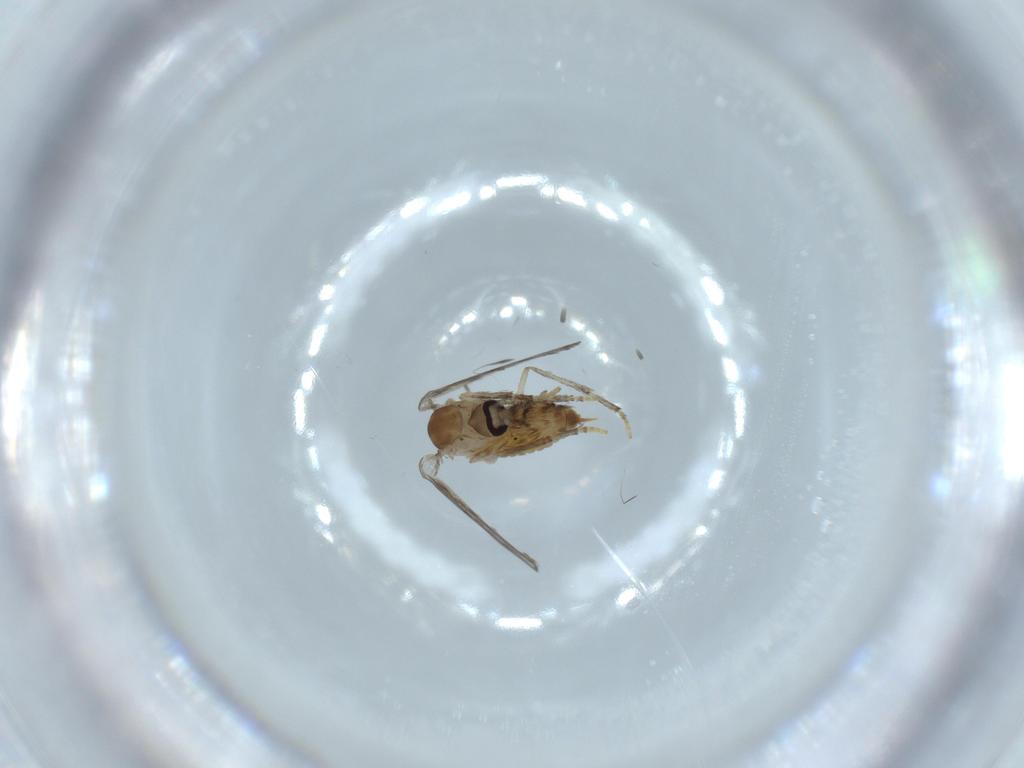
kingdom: Animalia
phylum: Arthropoda
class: Insecta
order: Diptera
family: Psychodidae
